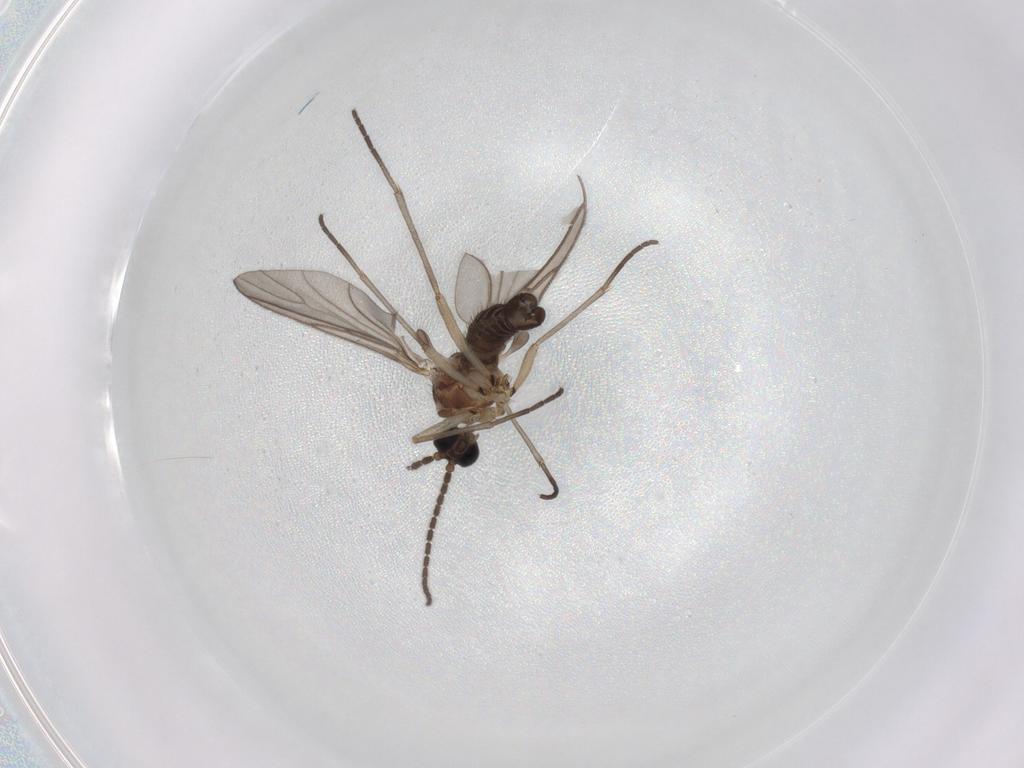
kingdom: Animalia
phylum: Arthropoda
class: Insecta
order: Diptera
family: Sciaridae
